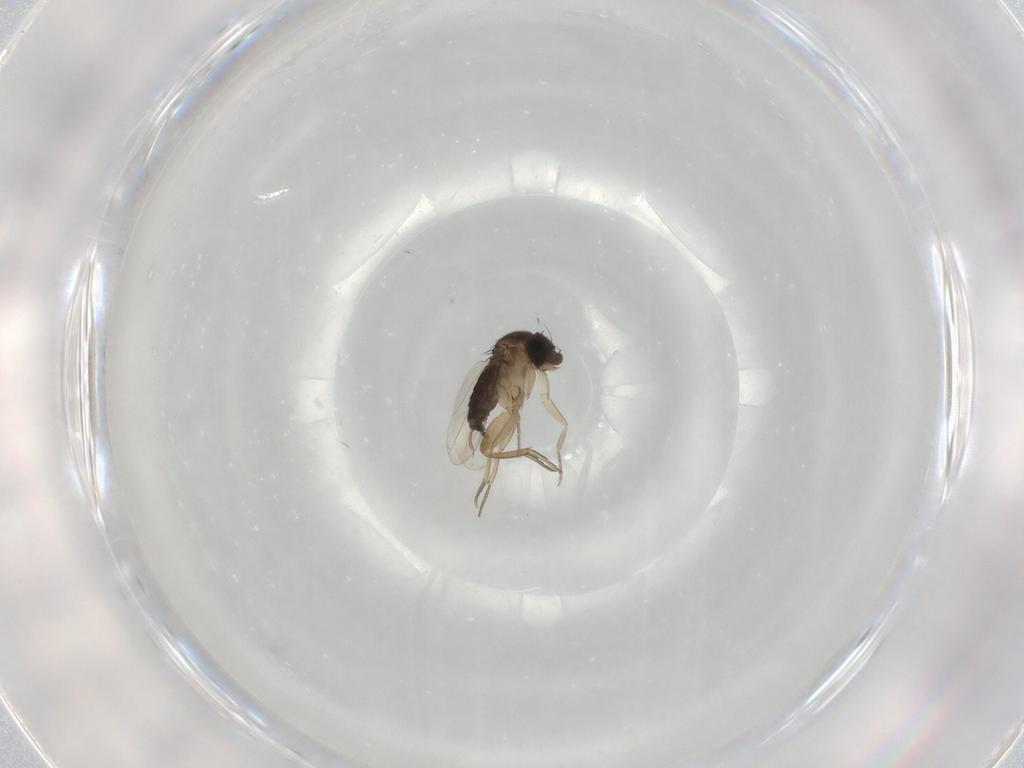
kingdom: Animalia
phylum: Arthropoda
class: Insecta
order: Diptera
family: Phoridae
